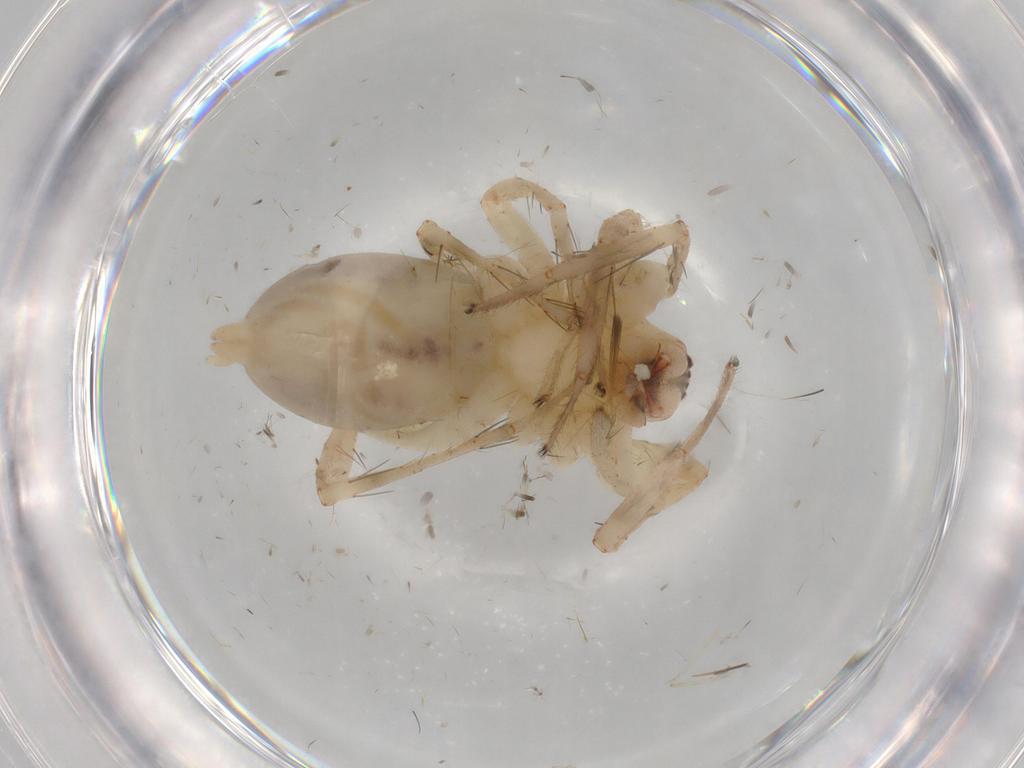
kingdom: Animalia
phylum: Arthropoda
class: Arachnida
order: Araneae
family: Anyphaenidae
